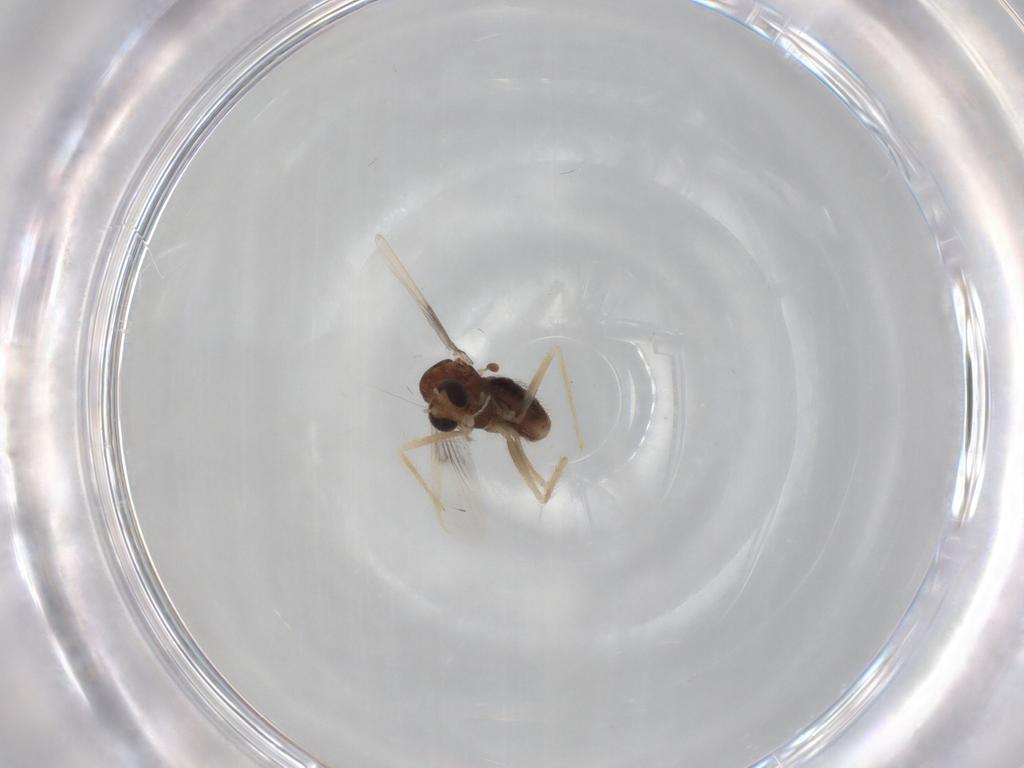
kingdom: Animalia
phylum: Arthropoda
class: Insecta
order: Diptera
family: Chironomidae
